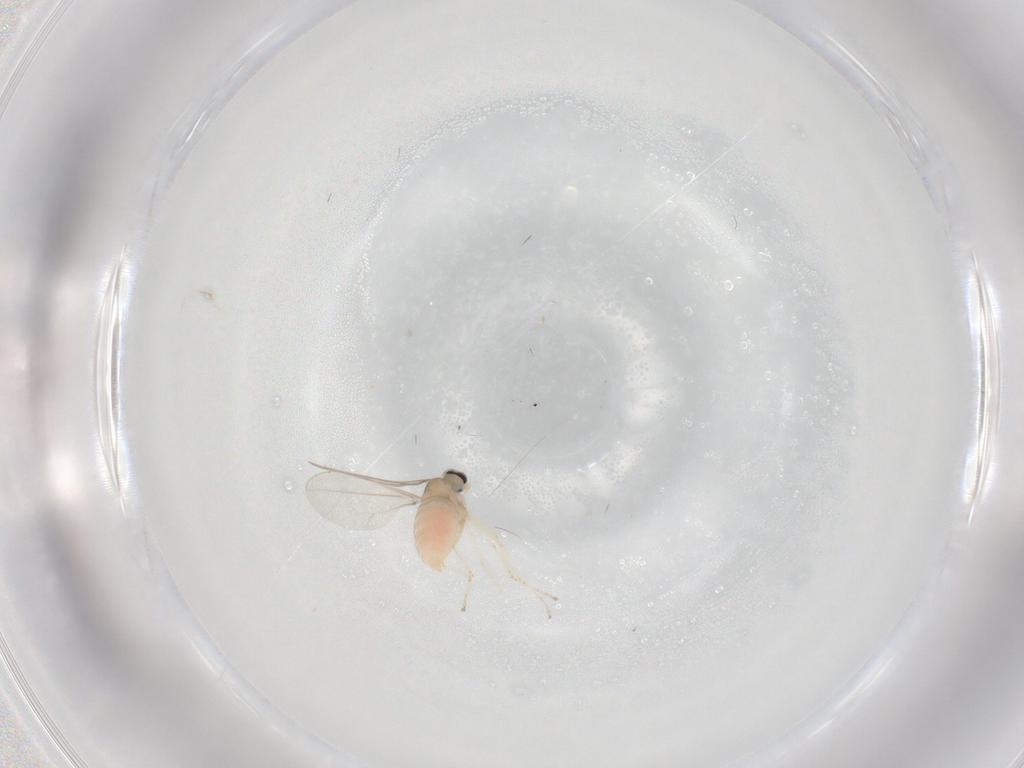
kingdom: Animalia
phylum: Arthropoda
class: Insecta
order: Diptera
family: Cecidomyiidae
